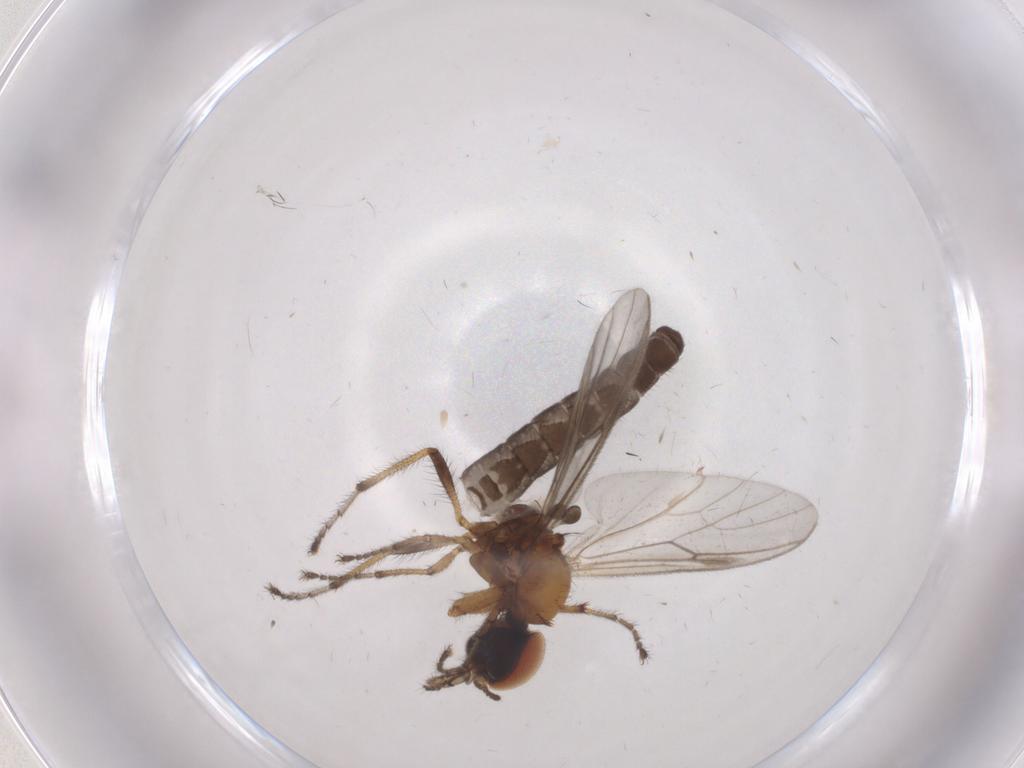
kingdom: Animalia
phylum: Arthropoda
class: Insecta
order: Diptera
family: Bibionidae
